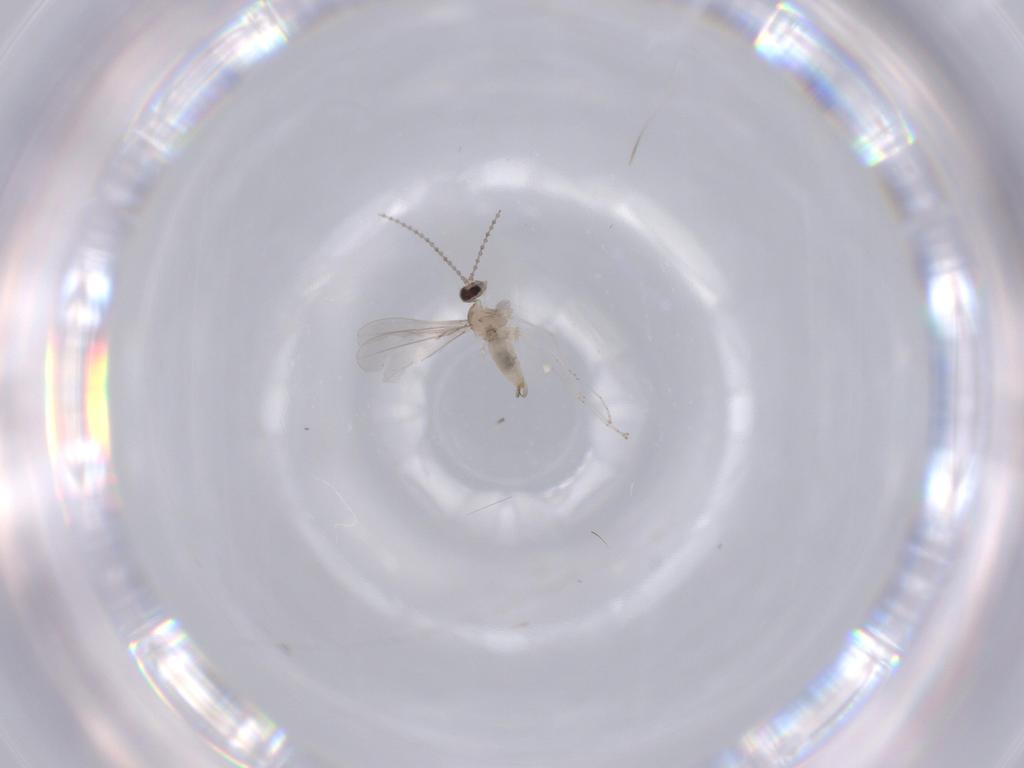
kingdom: Animalia
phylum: Arthropoda
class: Insecta
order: Diptera
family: Cecidomyiidae
